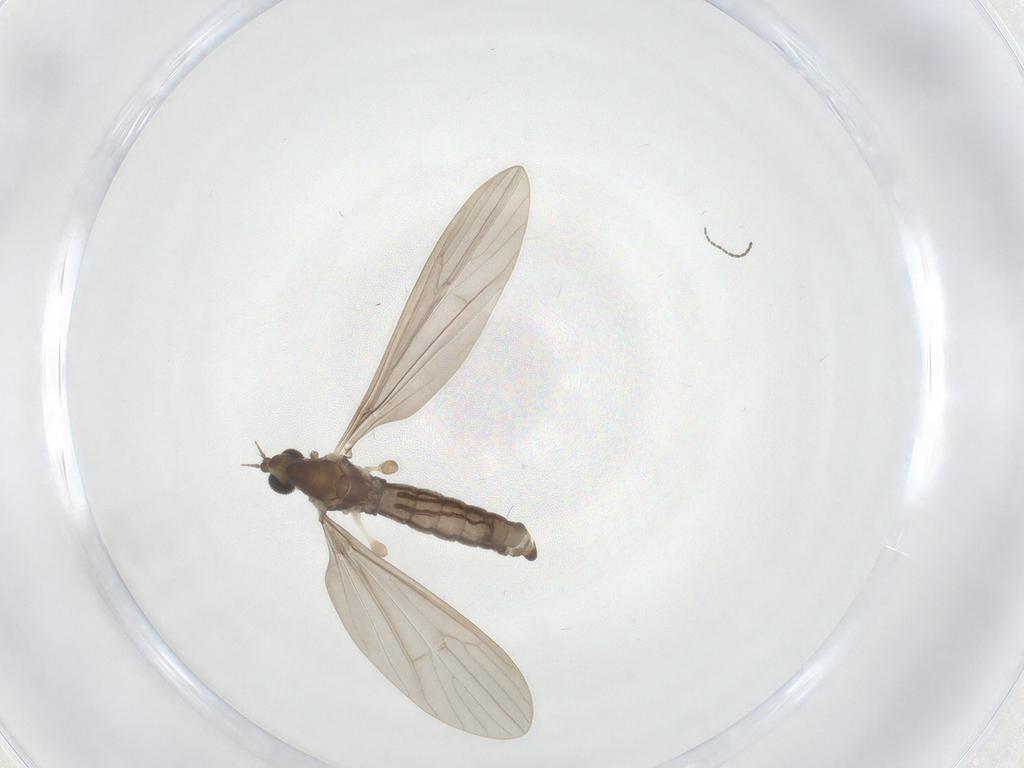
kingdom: Animalia
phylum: Arthropoda
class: Insecta
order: Diptera
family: Limoniidae
